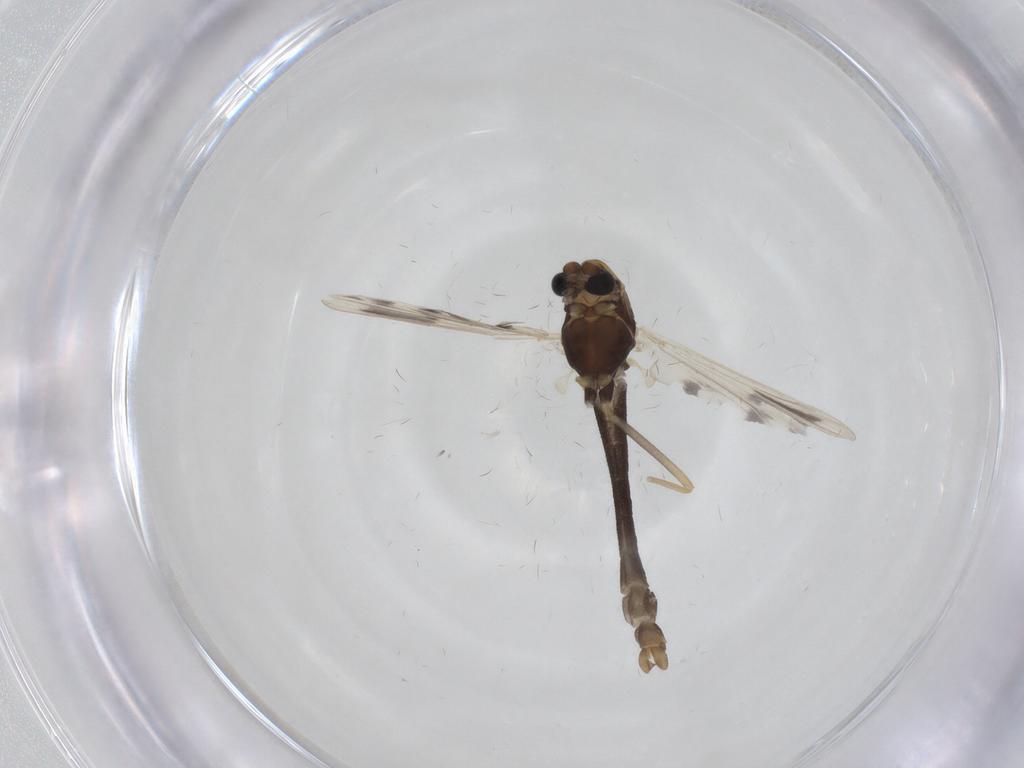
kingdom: Animalia
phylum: Arthropoda
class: Insecta
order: Diptera
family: Chironomidae
